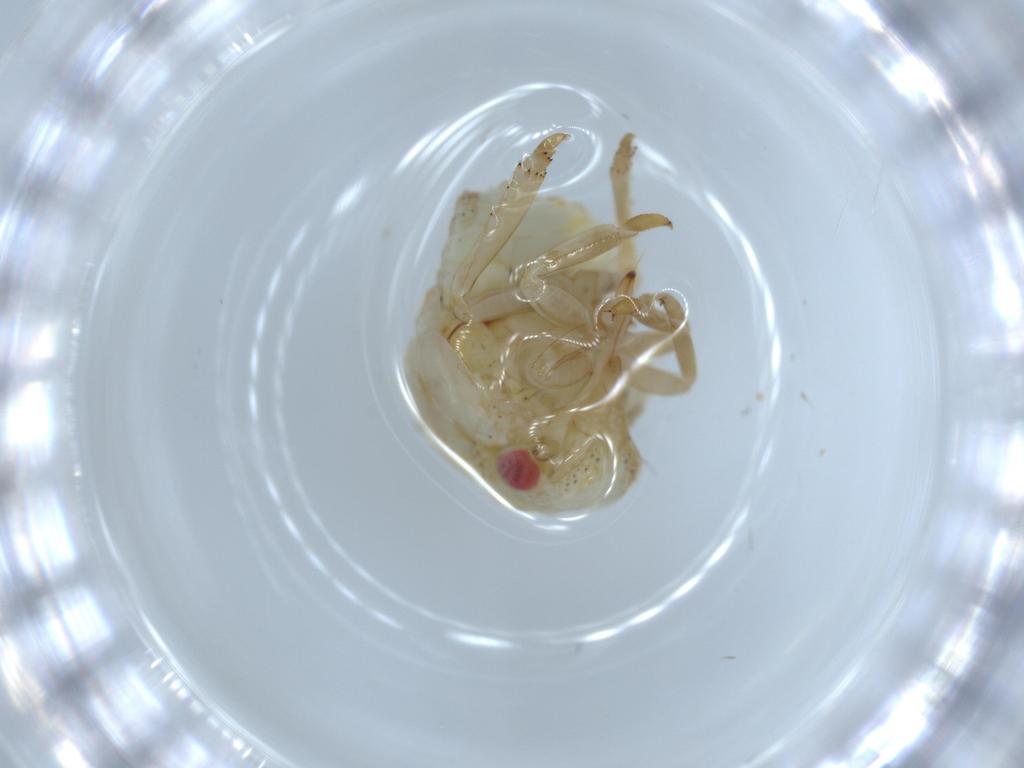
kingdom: Animalia
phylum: Arthropoda
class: Insecta
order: Hemiptera
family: Acanaloniidae
